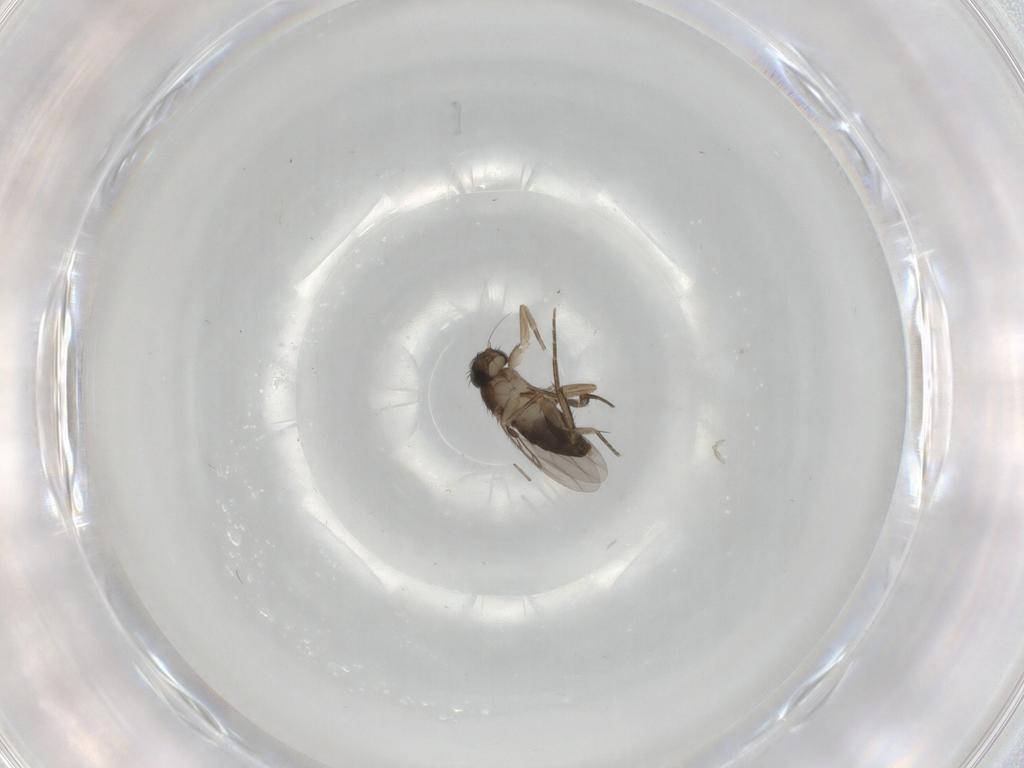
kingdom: Animalia
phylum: Arthropoda
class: Insecta
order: Diptera
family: Phoridae
